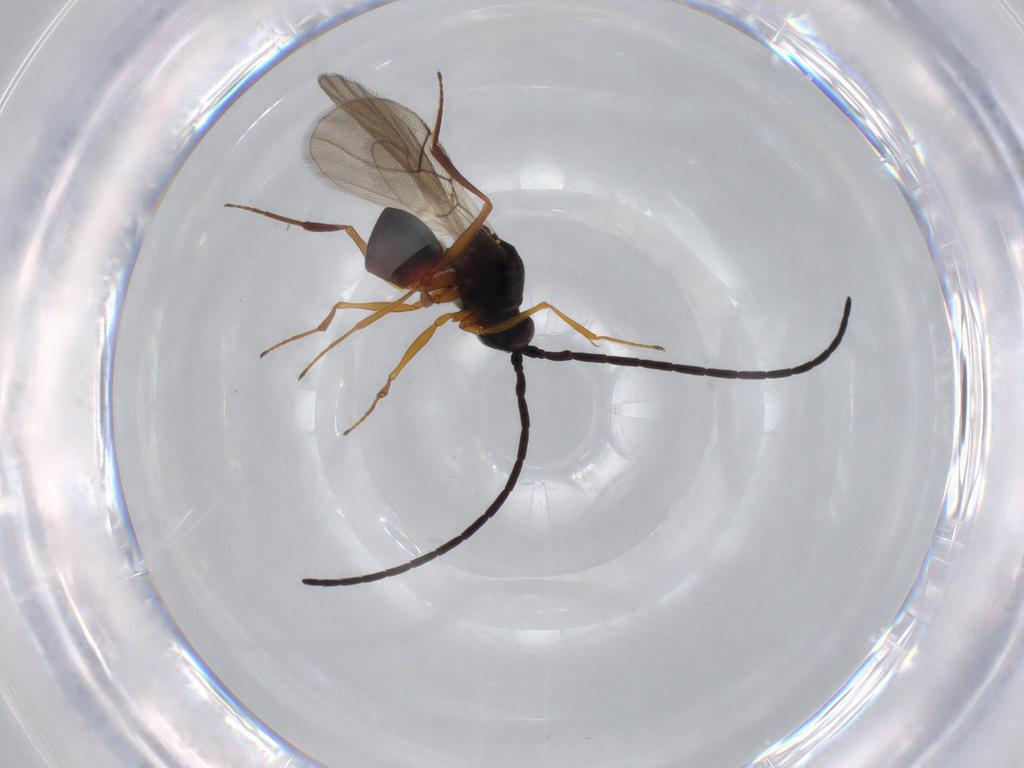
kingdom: Animalia
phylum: Arthropoda
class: Insecta
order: Hymenoptera
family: Figitidae
